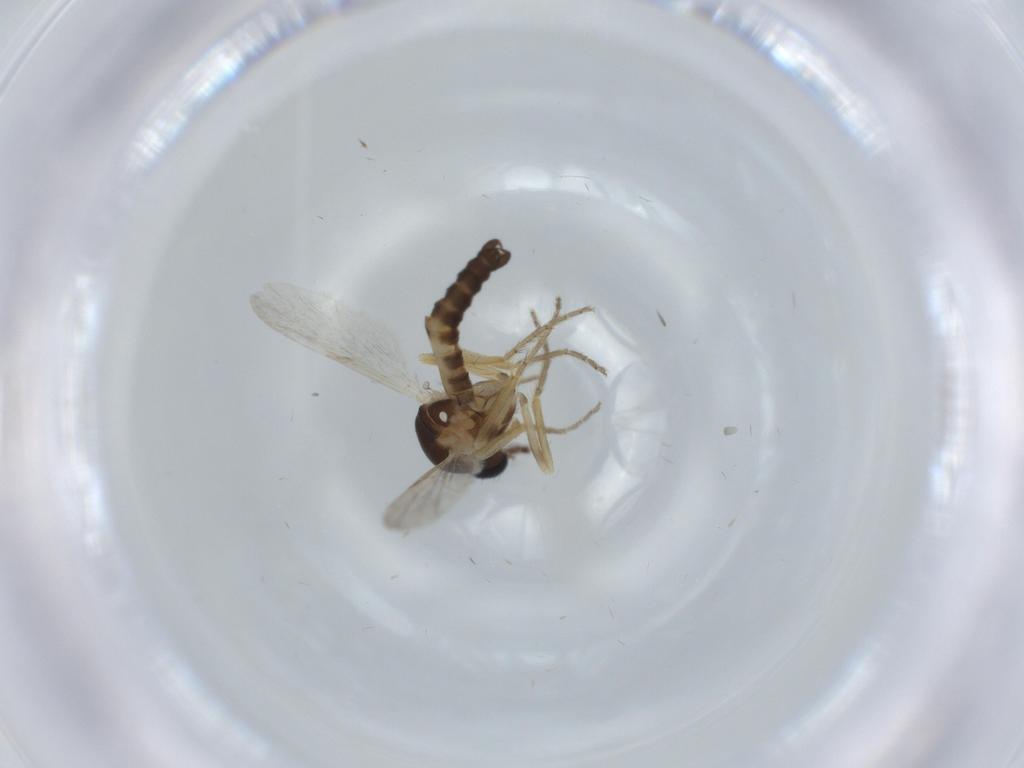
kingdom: Animalia
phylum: Arthropoda
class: Insecta
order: Diptera
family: Ceratopogonidae
